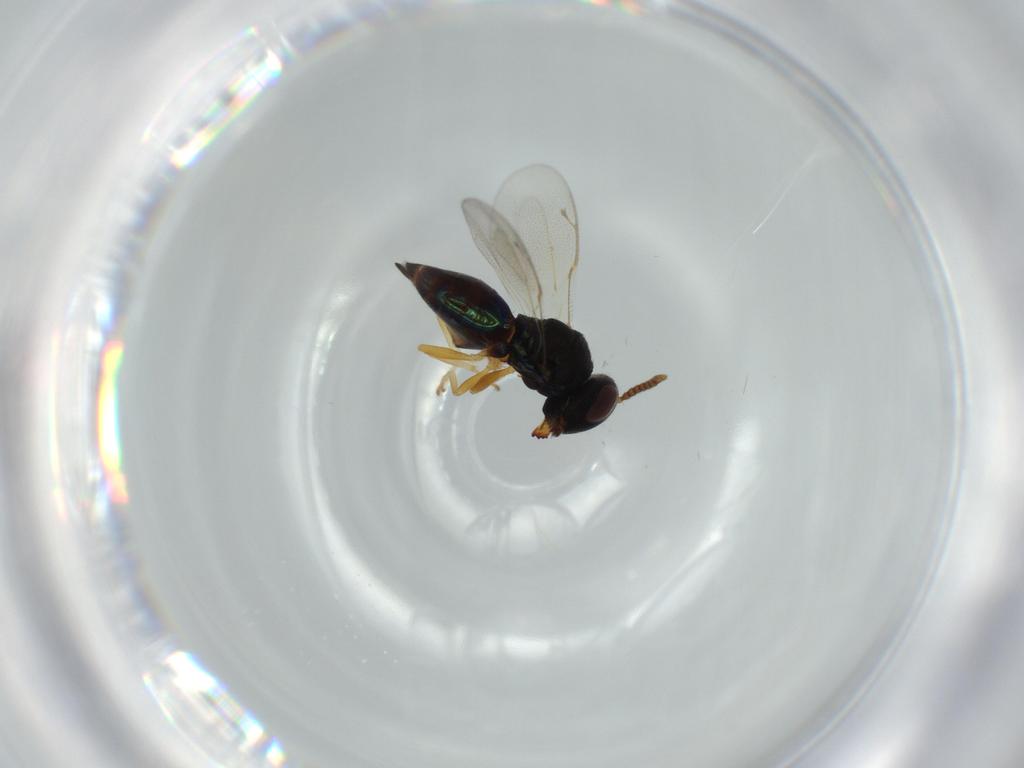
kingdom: Animalia
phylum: Arthropoda
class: Insecta
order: Hymenoptera
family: Pteromalidae
